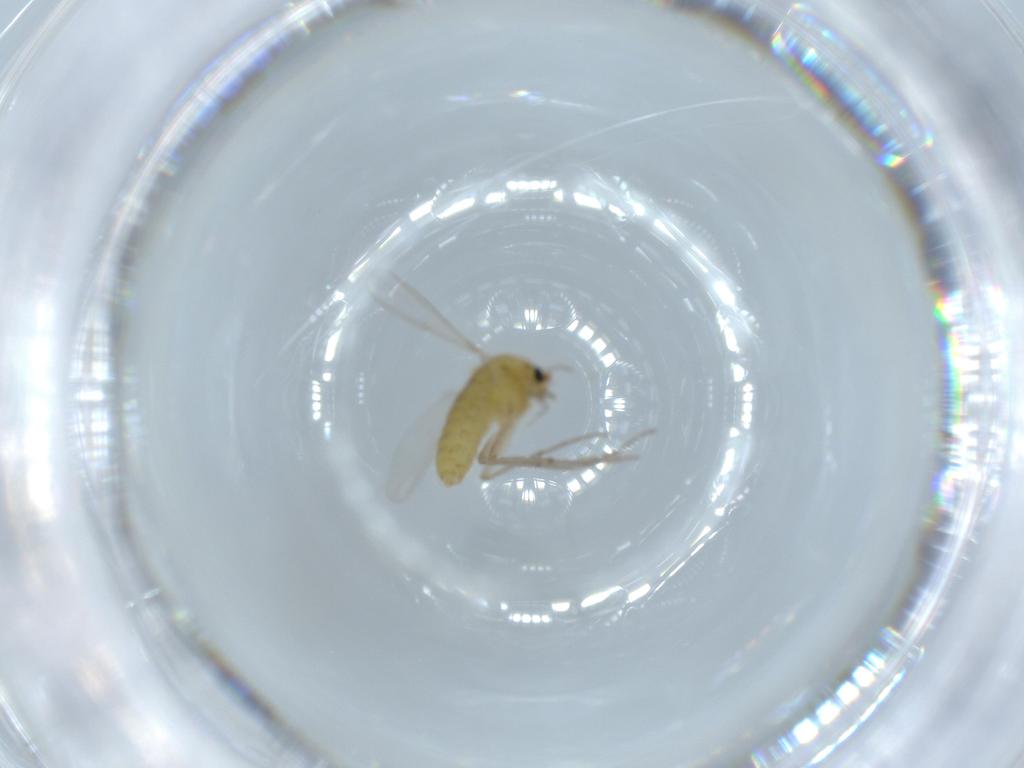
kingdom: Animalia
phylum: Arthropoda
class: Insecta
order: Diptera
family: Chironomidae
